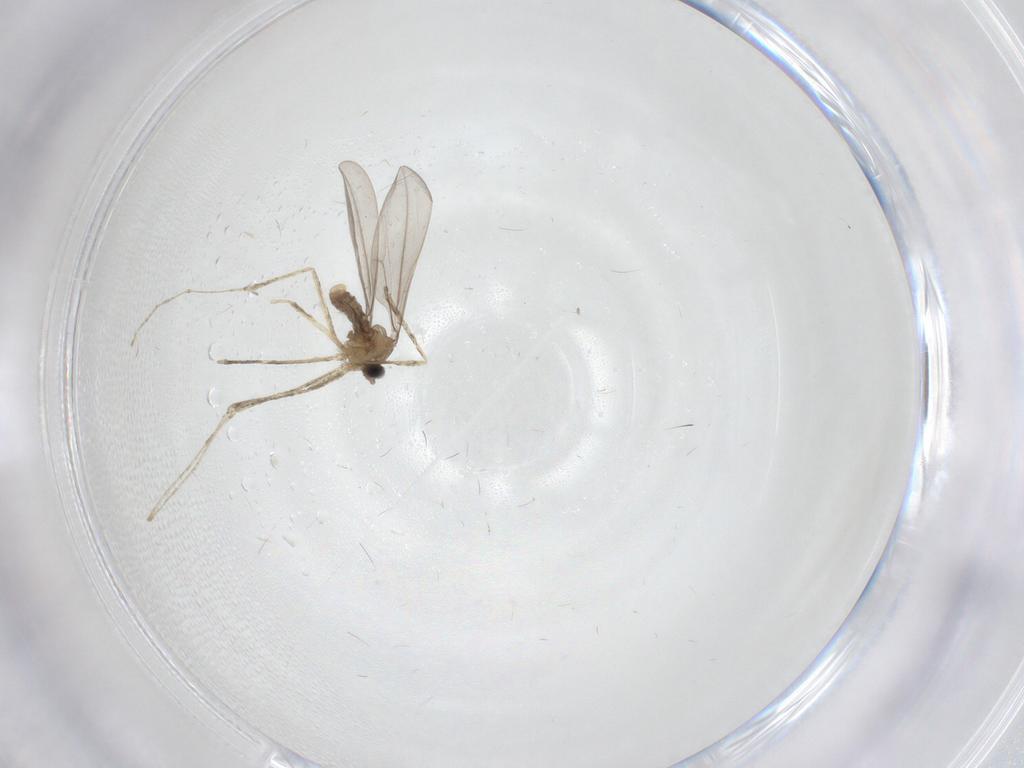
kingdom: Animalia
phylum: Arthropoda
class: Insecta
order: Diptera
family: Cecidomyiidae
